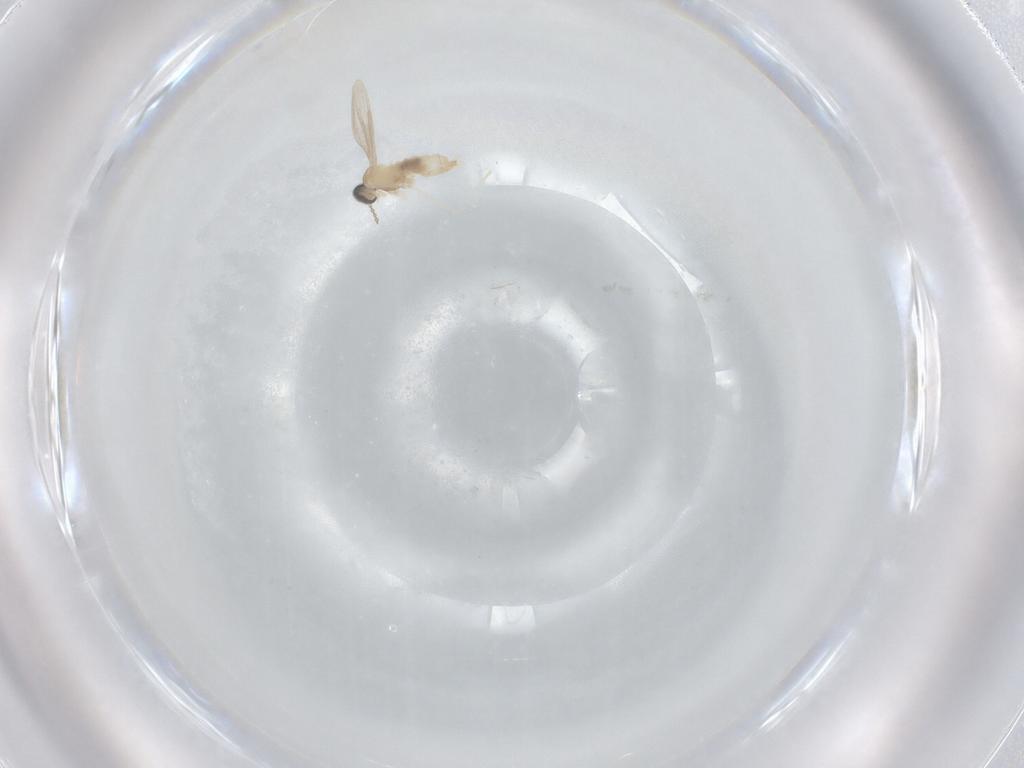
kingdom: Animalia
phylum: Arthropoda
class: Insecta
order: Diptera
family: Cecidomyiidae
